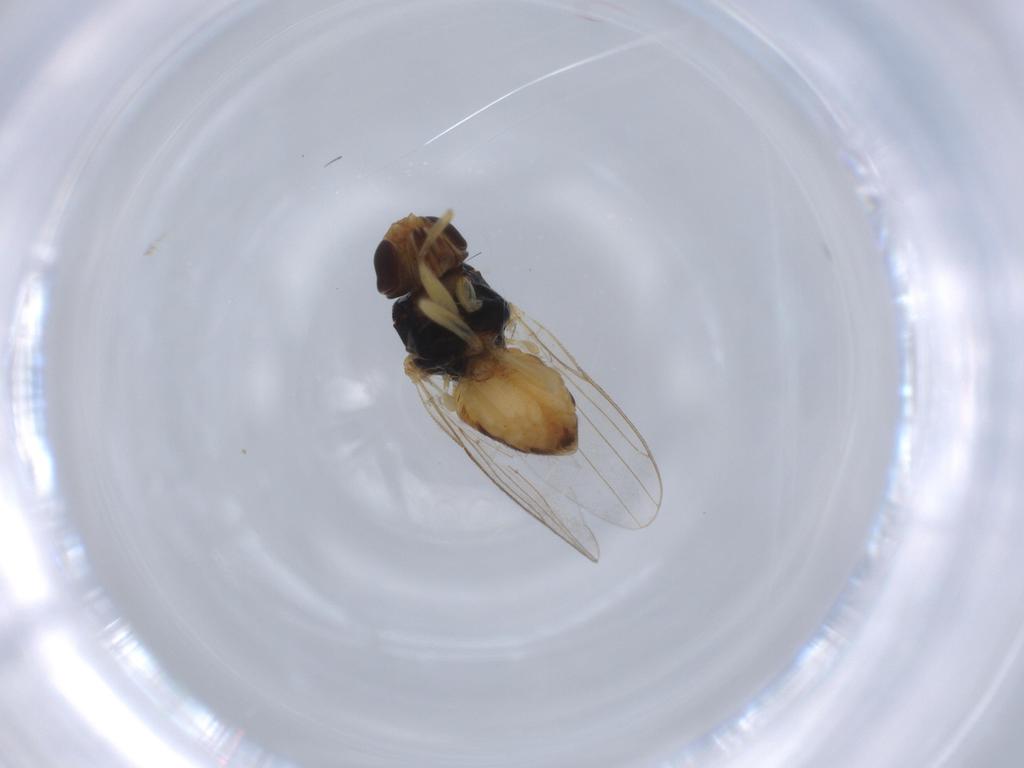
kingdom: Animalia
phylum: Arthropoda
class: Insecta
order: Diptera
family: Chloropidae
